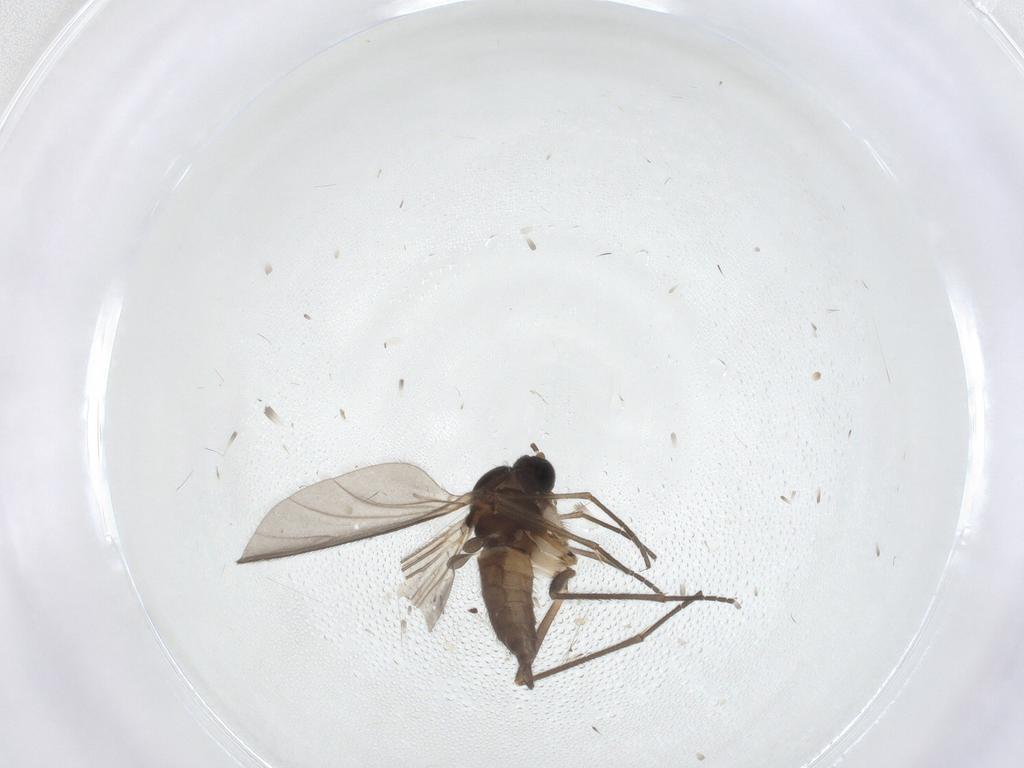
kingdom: Animalia
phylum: Arthropoda
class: Insecta
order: Diptera
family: Sciaridae
